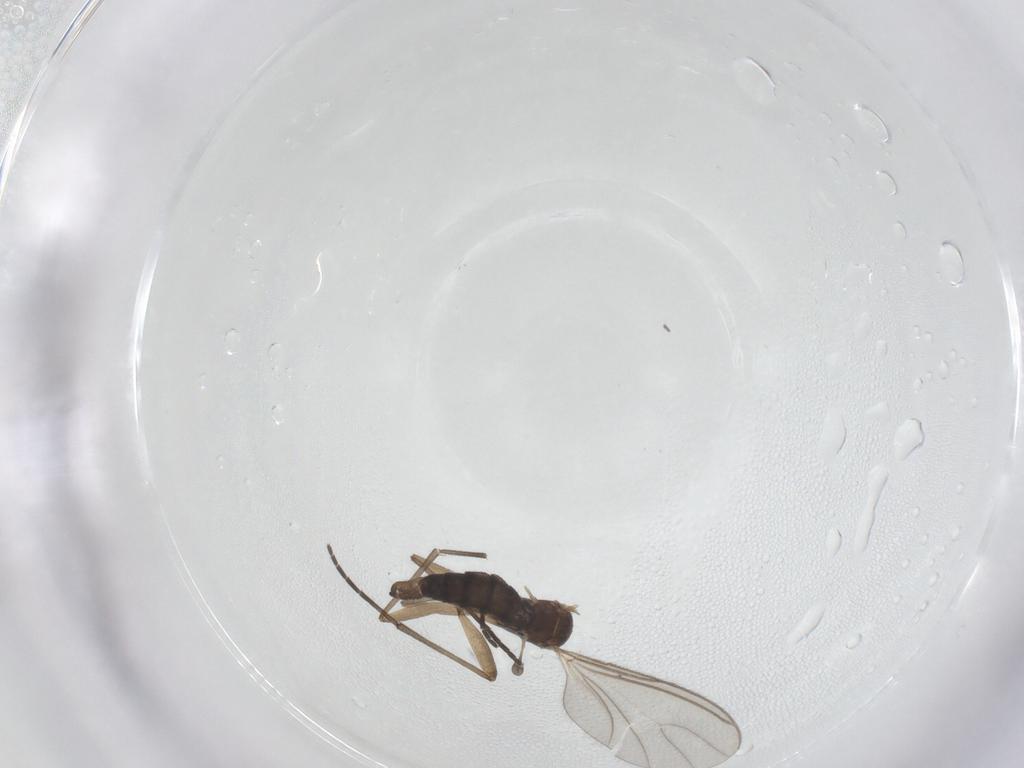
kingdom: Animalia
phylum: Arthropoda
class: Insecta
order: Diptera
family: Sciaridae
